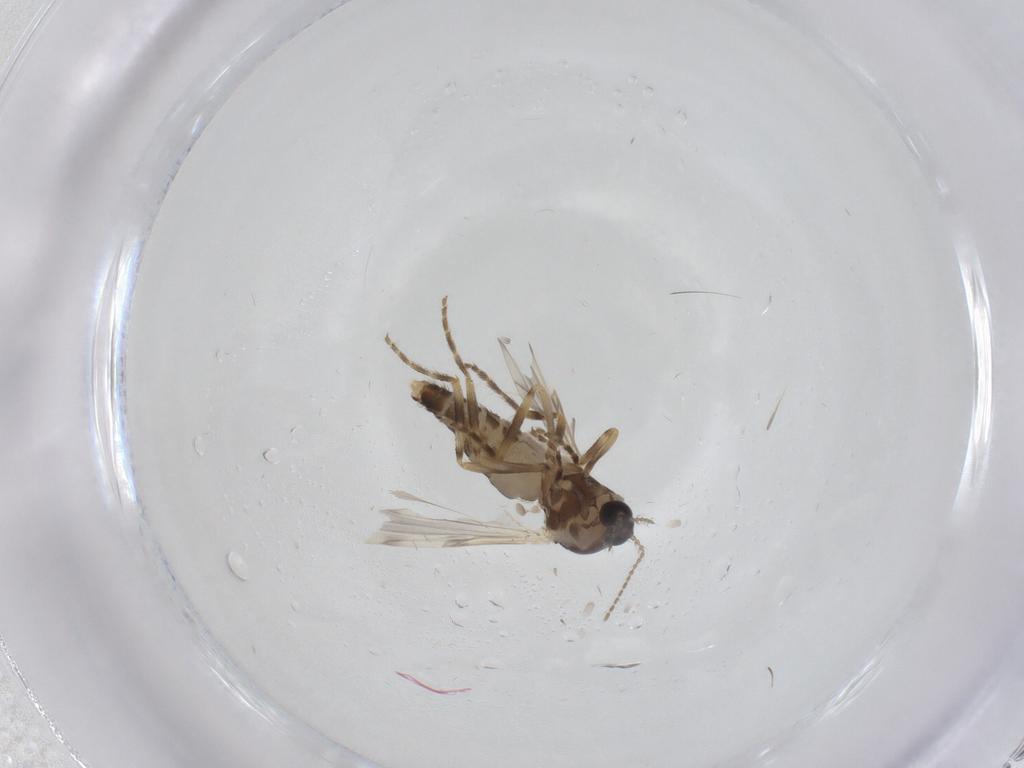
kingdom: Animalia
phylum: Arthropoda
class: Insecta
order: Diptera
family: Ceratopogonidae
